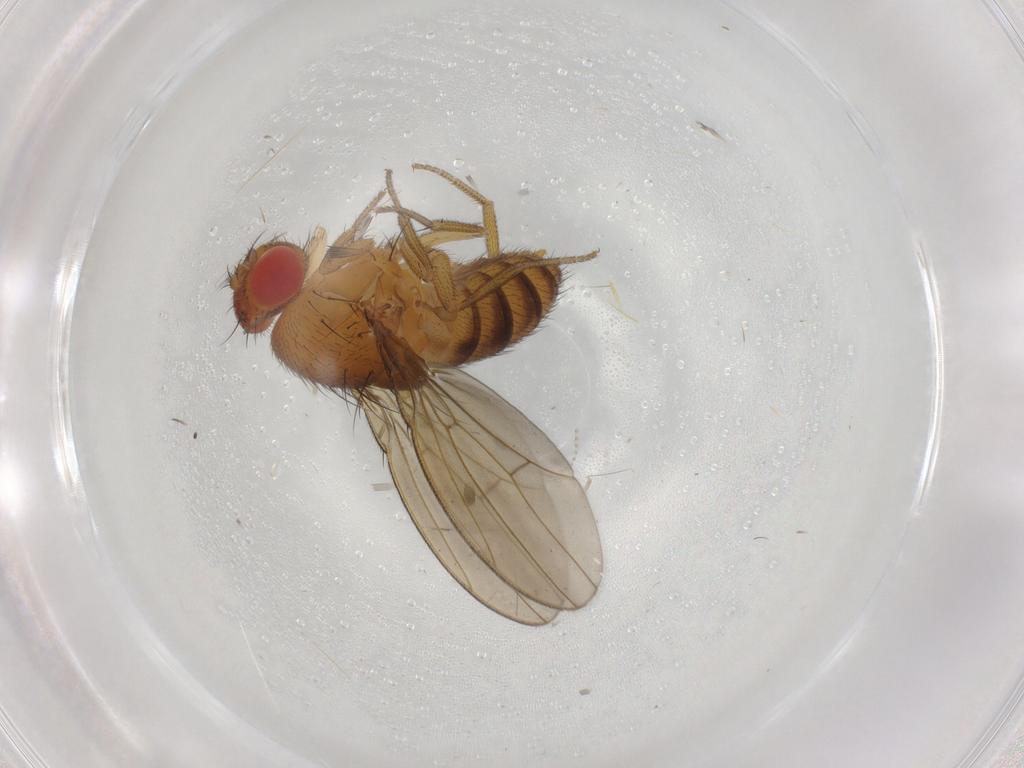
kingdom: Animalia
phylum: Arthropoda
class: Insecta
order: Diptera
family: Drosophilidae
